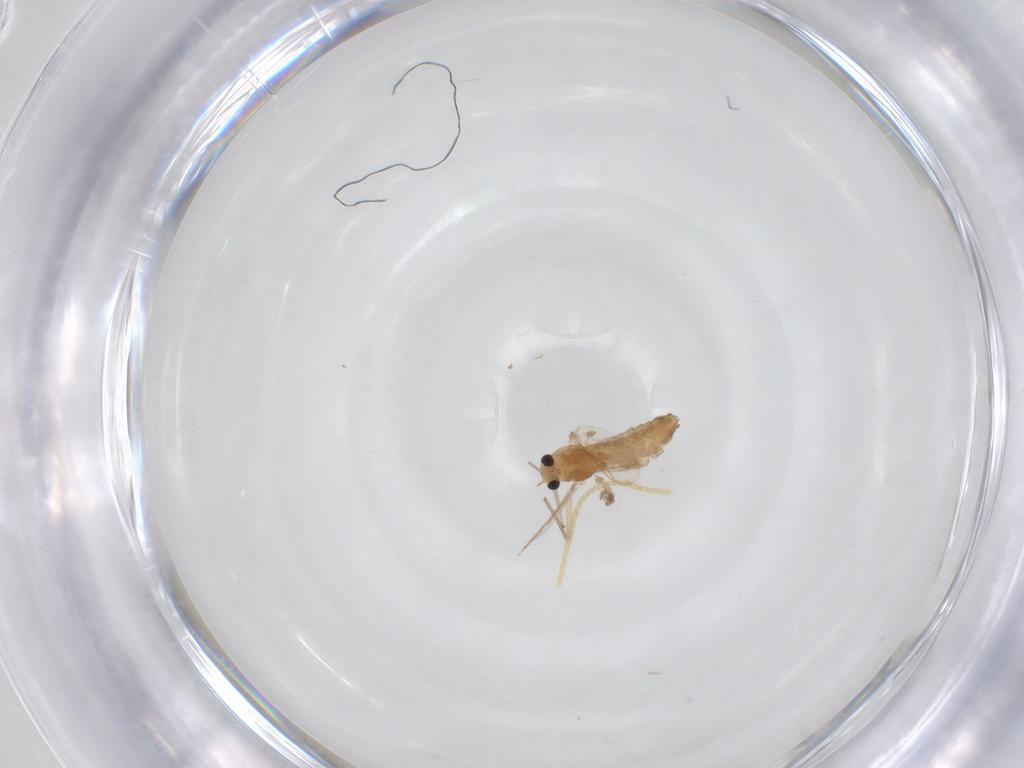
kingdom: Animalia
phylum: Arthropoda
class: Insecta
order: Diptera
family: Chironomidae
